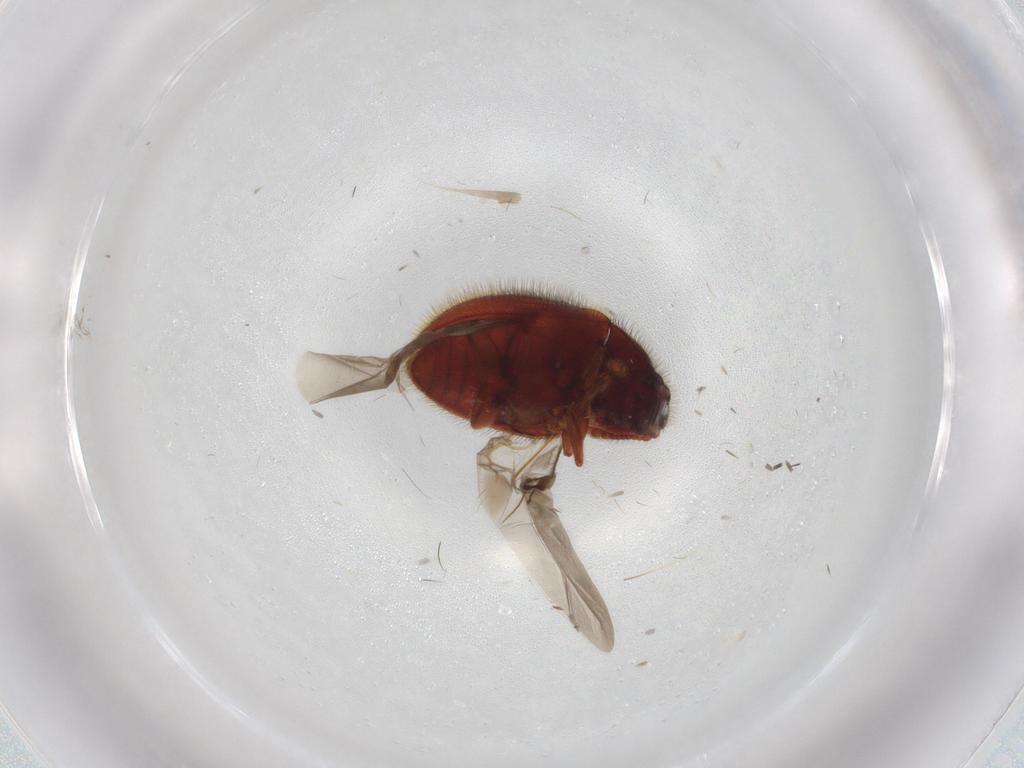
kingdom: Animalia
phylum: Arthropoda
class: Insecta
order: Coleoptera
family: Biphyllidae
